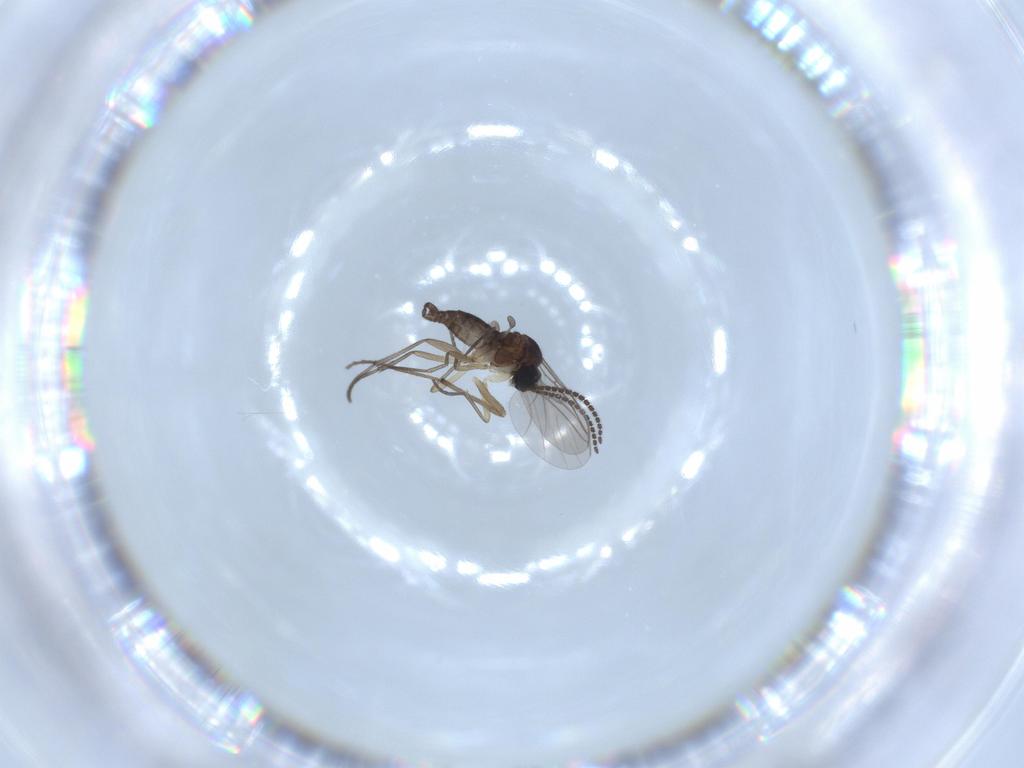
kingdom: Animalia
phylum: Arthropoda
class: Insecta
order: Diptera
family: Sciaridae
